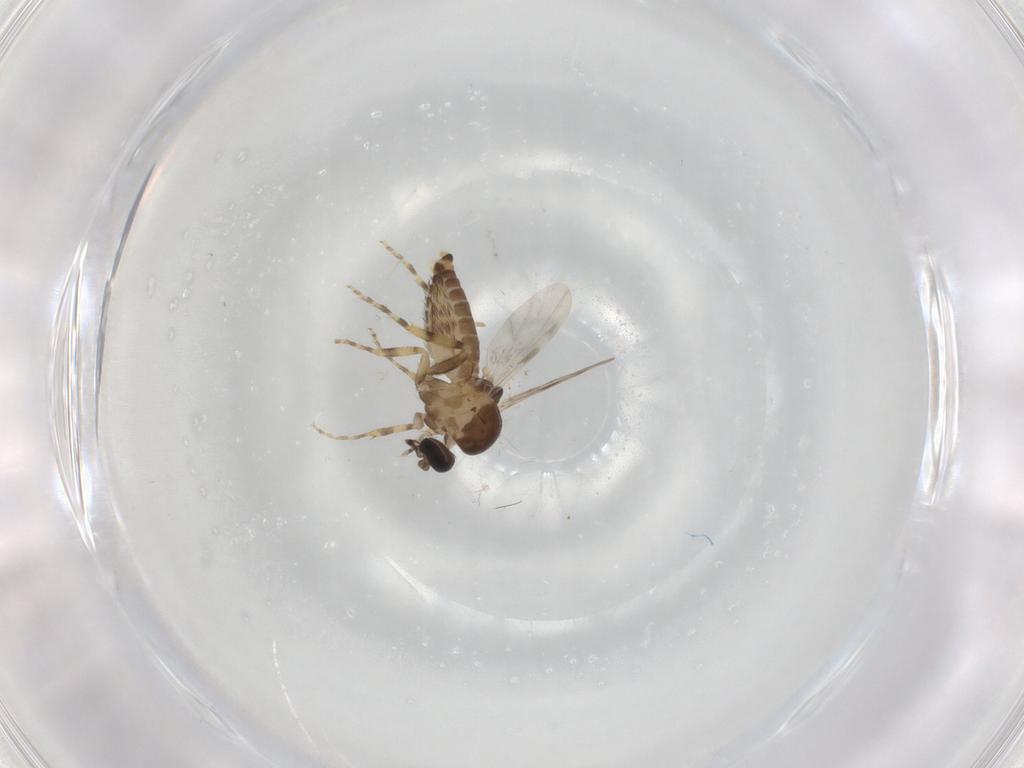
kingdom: Animalia
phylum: Arthropoda
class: Insecta
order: Diptera
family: Ceratopogonidae
